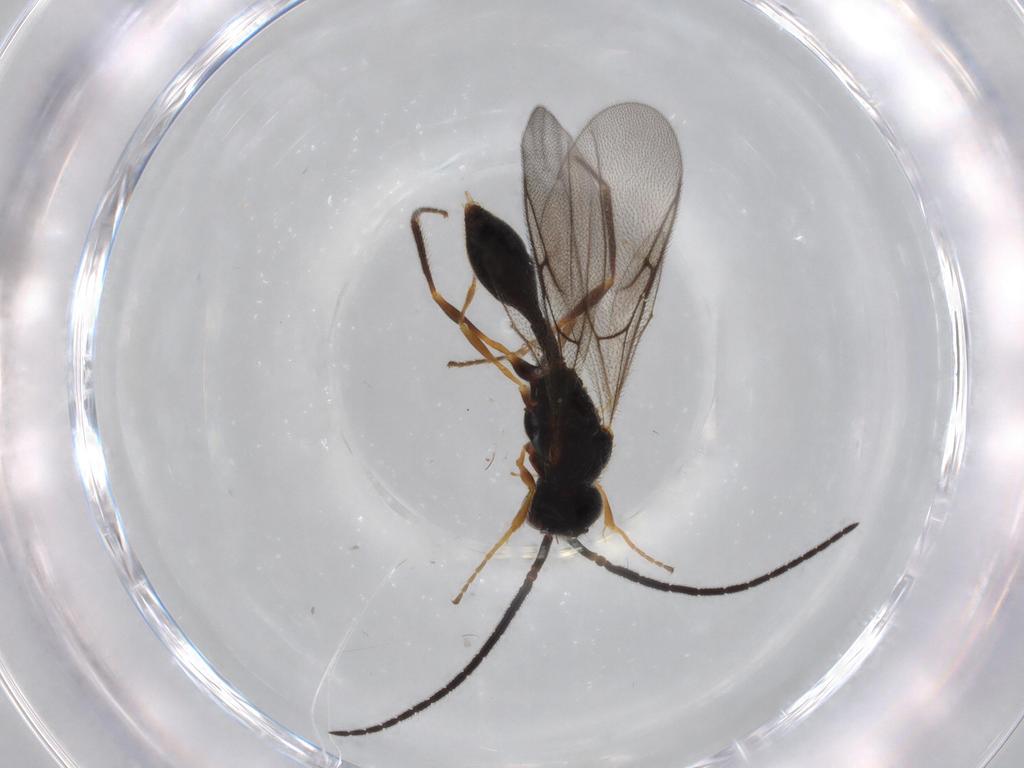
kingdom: Animalia
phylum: Arthropoda
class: Insecta
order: Hymenoptera
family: Diapriidae
